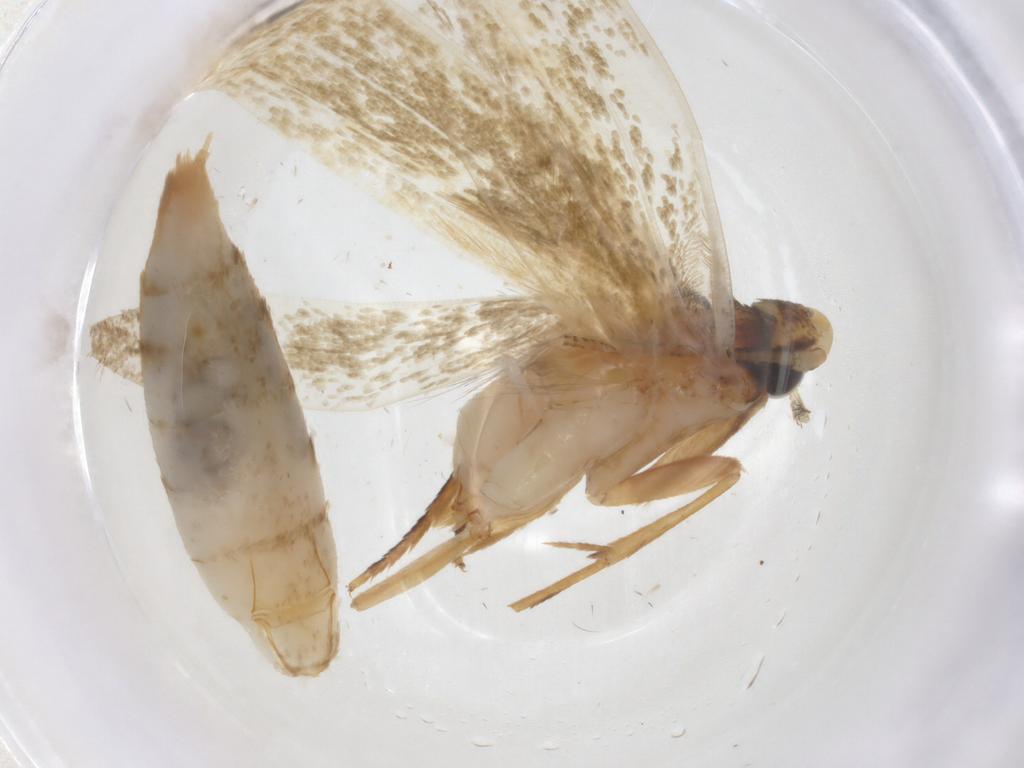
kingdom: Animalia
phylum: Arthropoda
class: Insecta
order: Lepidoptera
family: Tineidae
